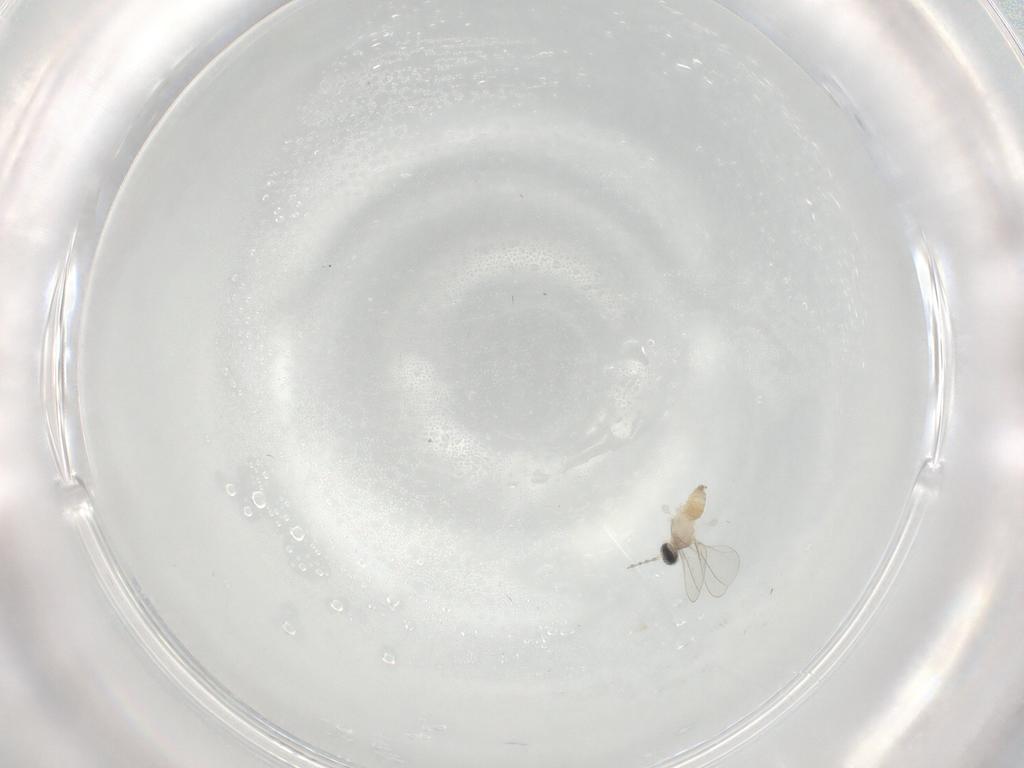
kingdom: Animalia
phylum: Arthropoda
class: Insecta
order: Diptera
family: Cecidomyiidae
